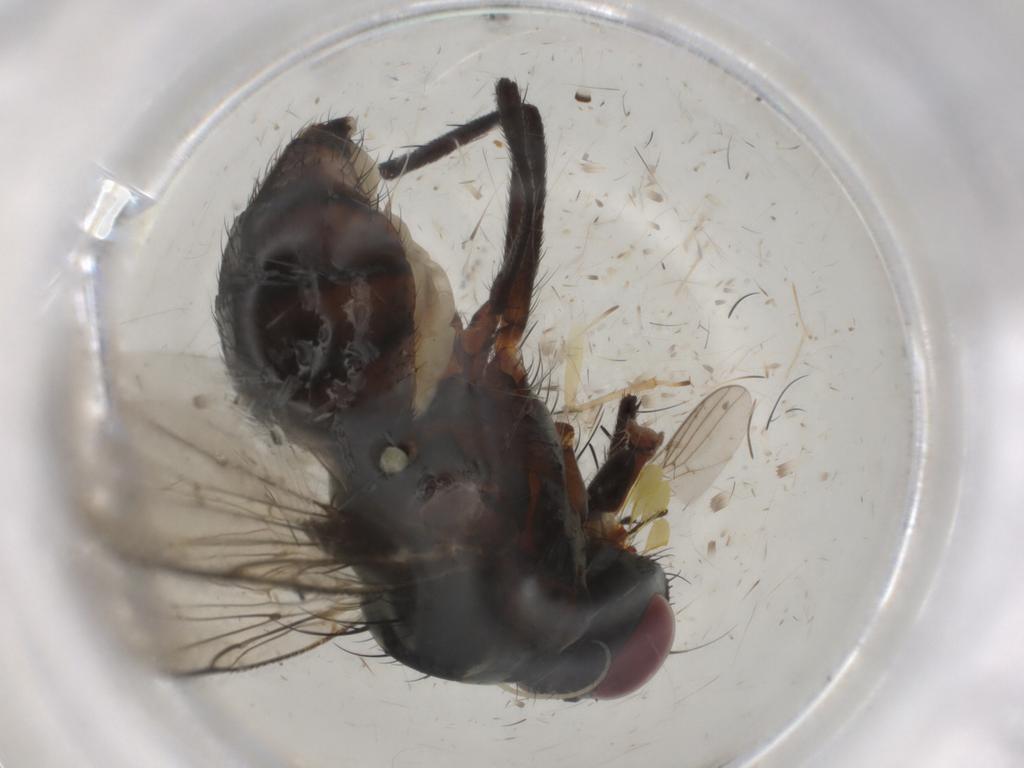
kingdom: Animalia
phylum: Arthropoda
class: Insecta
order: Diptera
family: Anthomyiidae
